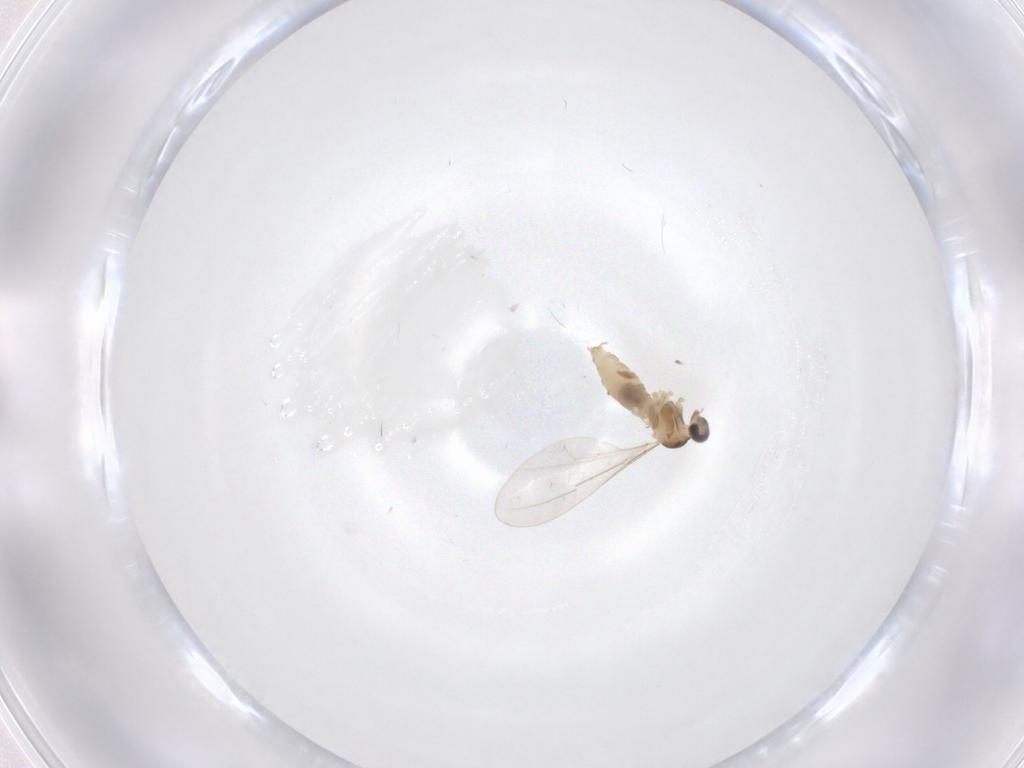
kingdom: Animalia
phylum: Arthropoda
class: Insecta
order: Diptera
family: Cecidomyiidae
